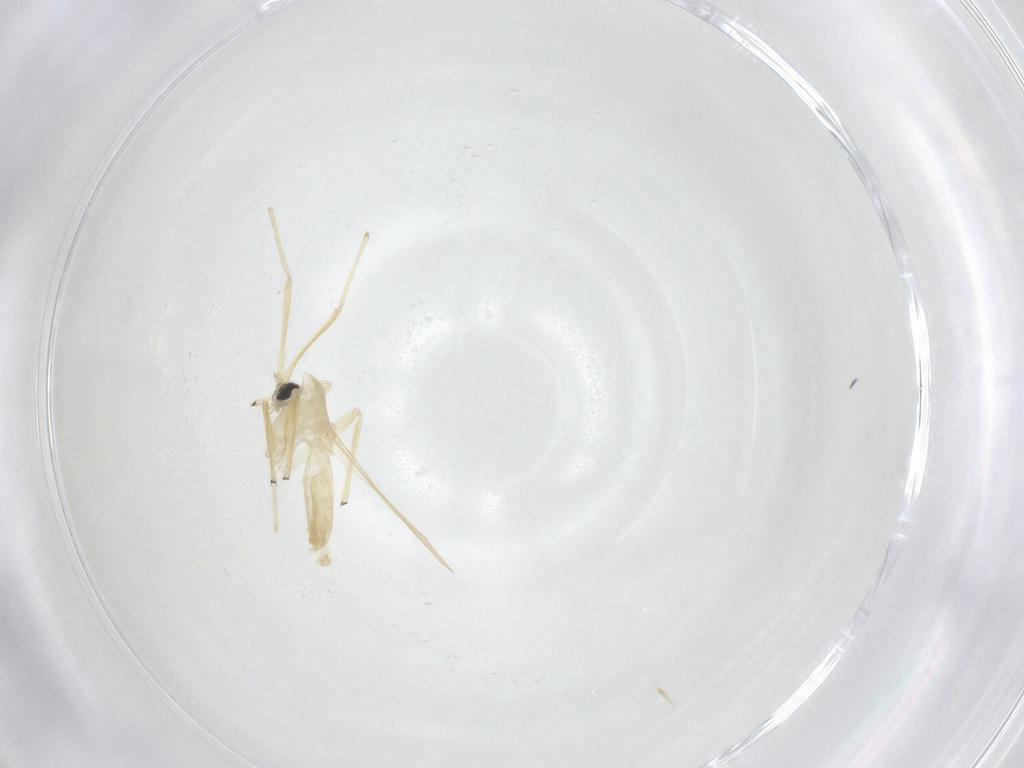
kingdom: Animalia
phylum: Arthropoda
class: Insecta
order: Diptera
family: Chironomidae
